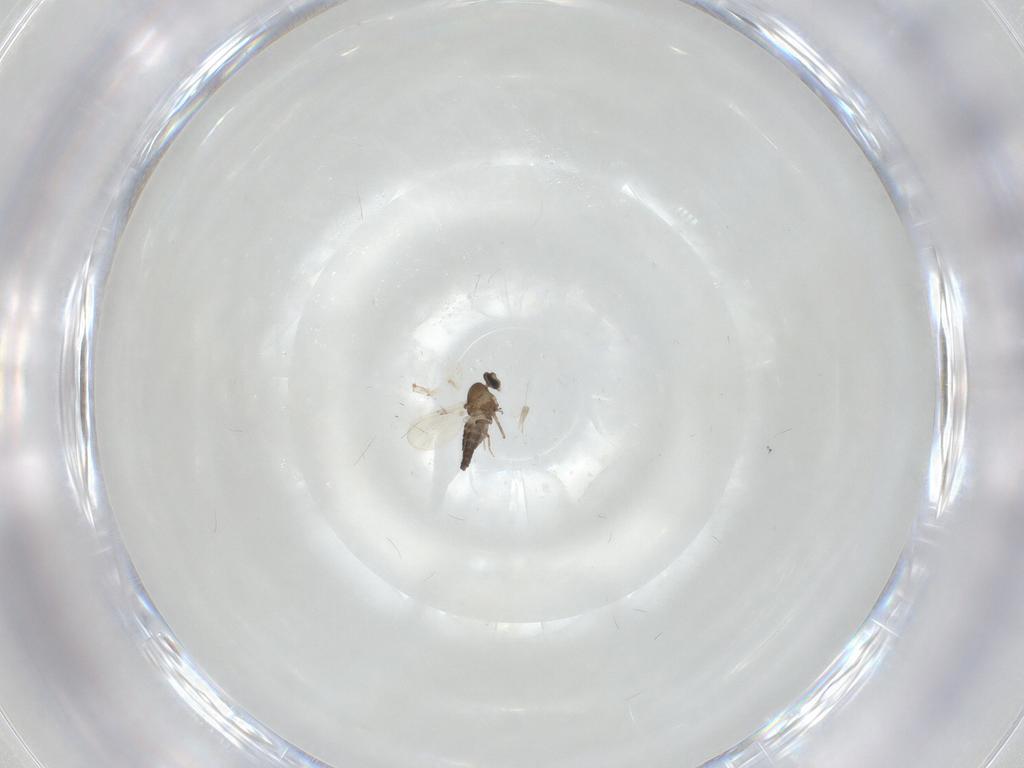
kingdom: Animalia
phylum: Arthropoda
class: Insecta
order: Diptera
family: Ceratopogonidae
